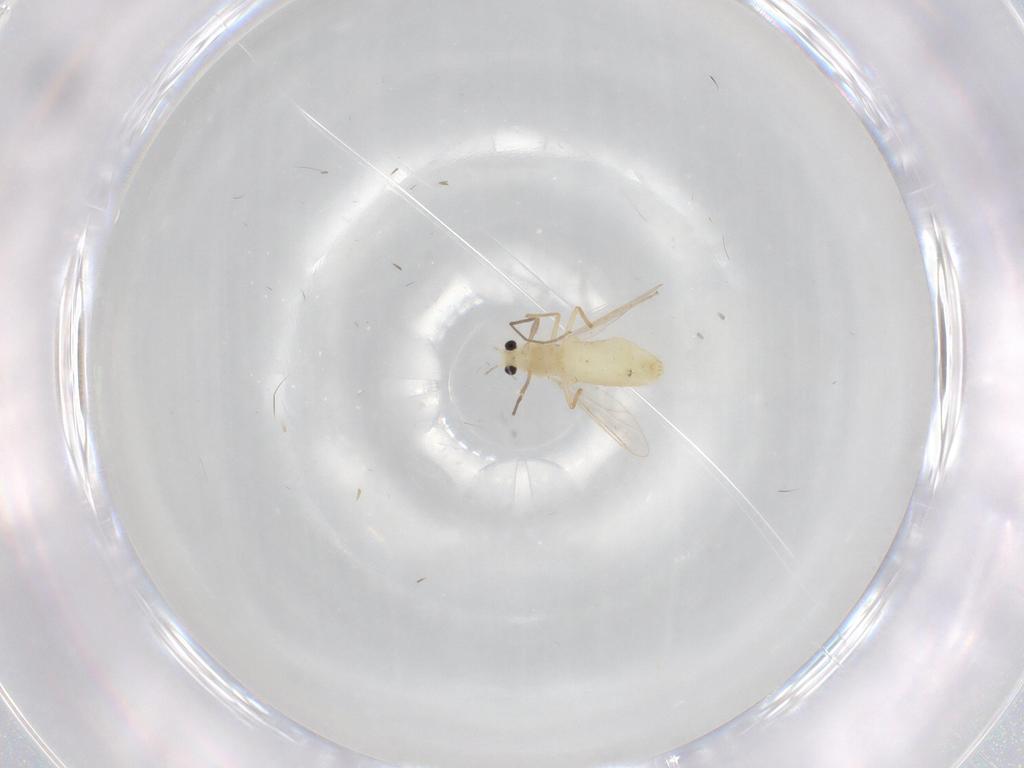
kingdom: Animalia
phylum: Arthropoda
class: Insecta
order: Diptera
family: Chironomidae
